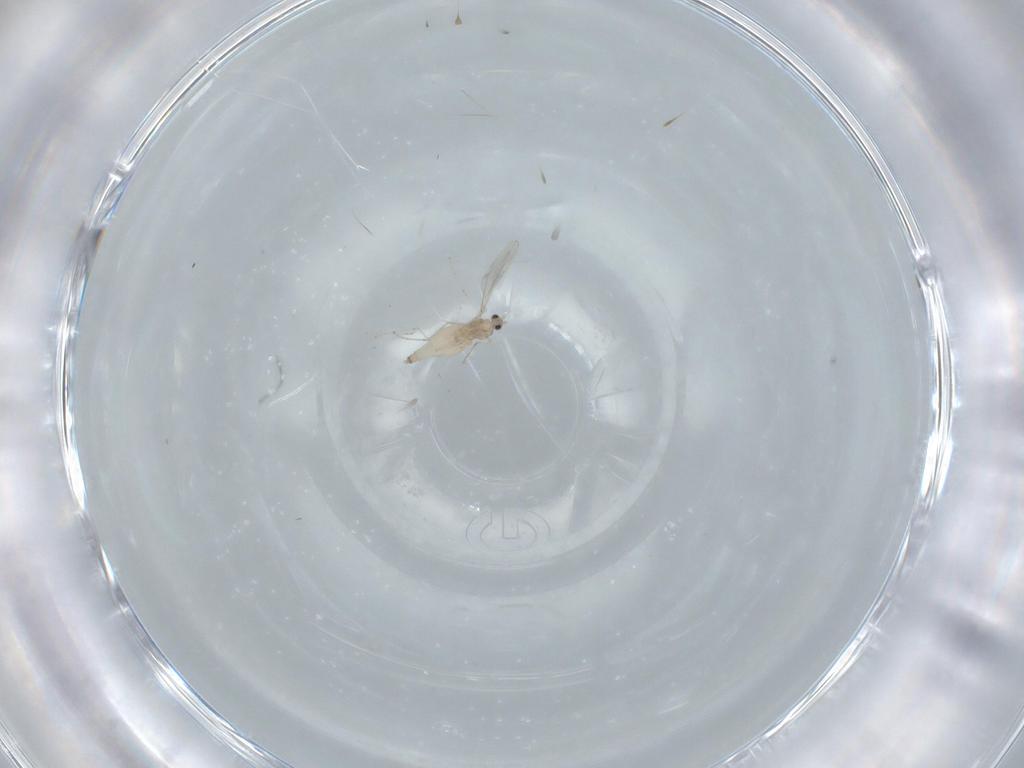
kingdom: Animalia
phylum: Arthropoda
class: Insecta
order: Diptera
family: Cecidomyiidae
